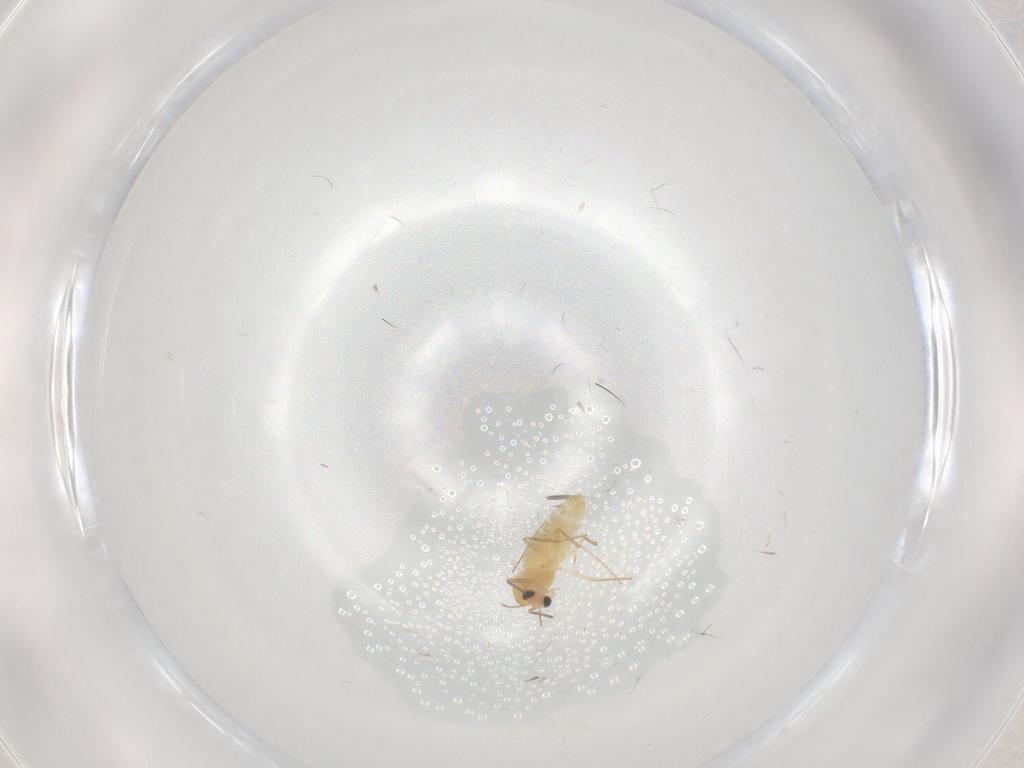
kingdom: Animalia
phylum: Arthropoda
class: Insecta
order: Diptera
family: Chironomidae
